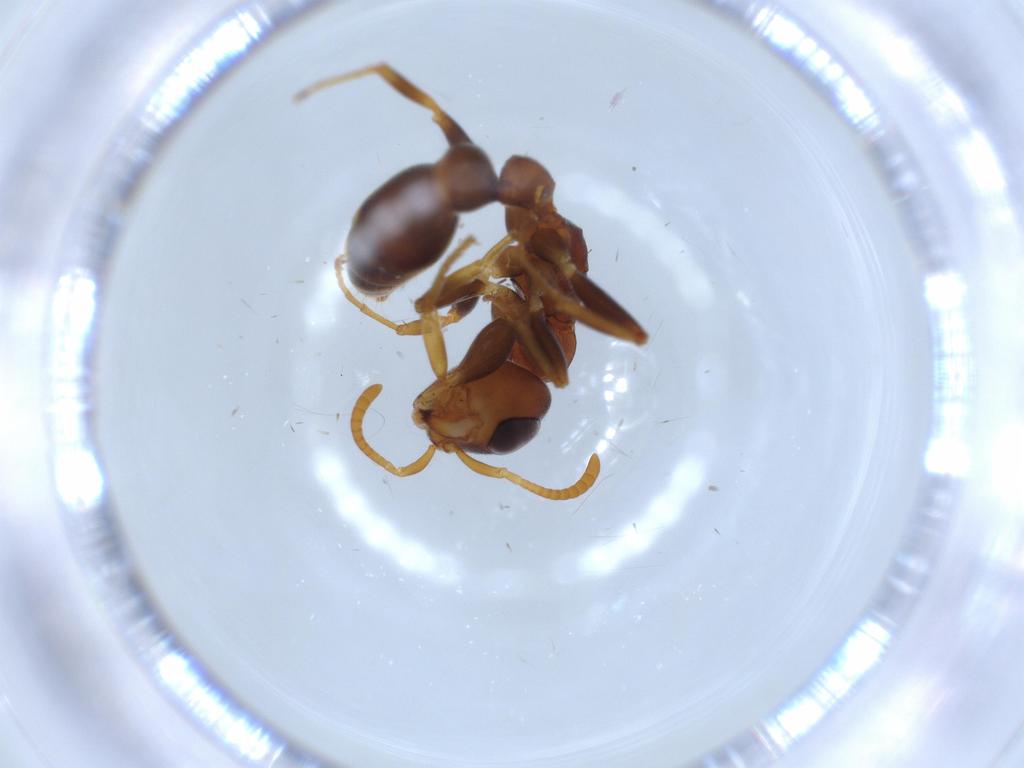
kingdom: Animalia
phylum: Arthropoda
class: Insecta
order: Hymenoptera
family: Formicidae
